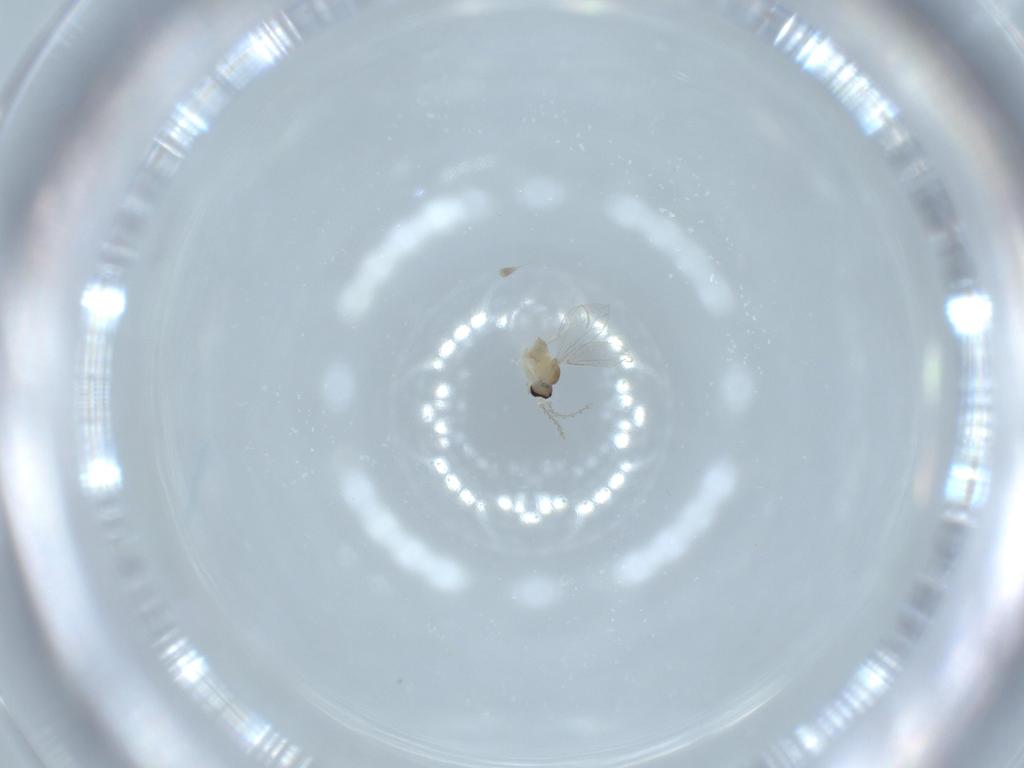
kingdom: Animalia
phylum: Arthropoda
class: Insecta
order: Diptera
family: Cecidomyiidae
